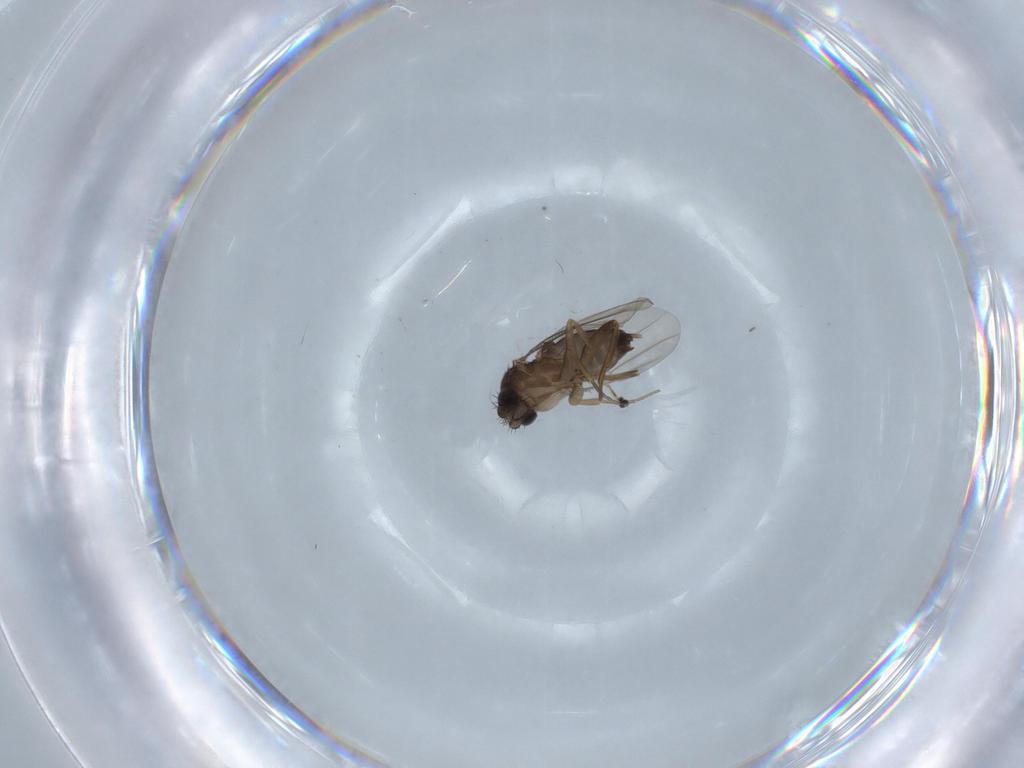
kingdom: Animalia
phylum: Arthropoda
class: Insecta
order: Diptera
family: Phoridae
